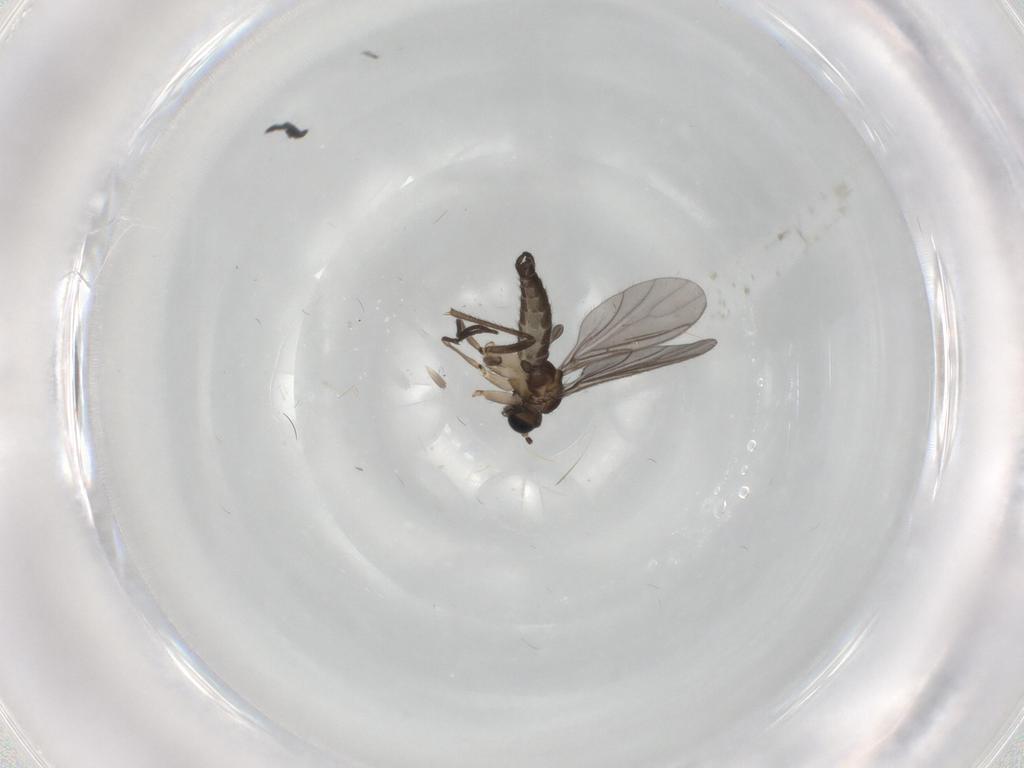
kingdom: Animalia
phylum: Arthropoda
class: Insecta
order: Diptera
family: Sciaridae
